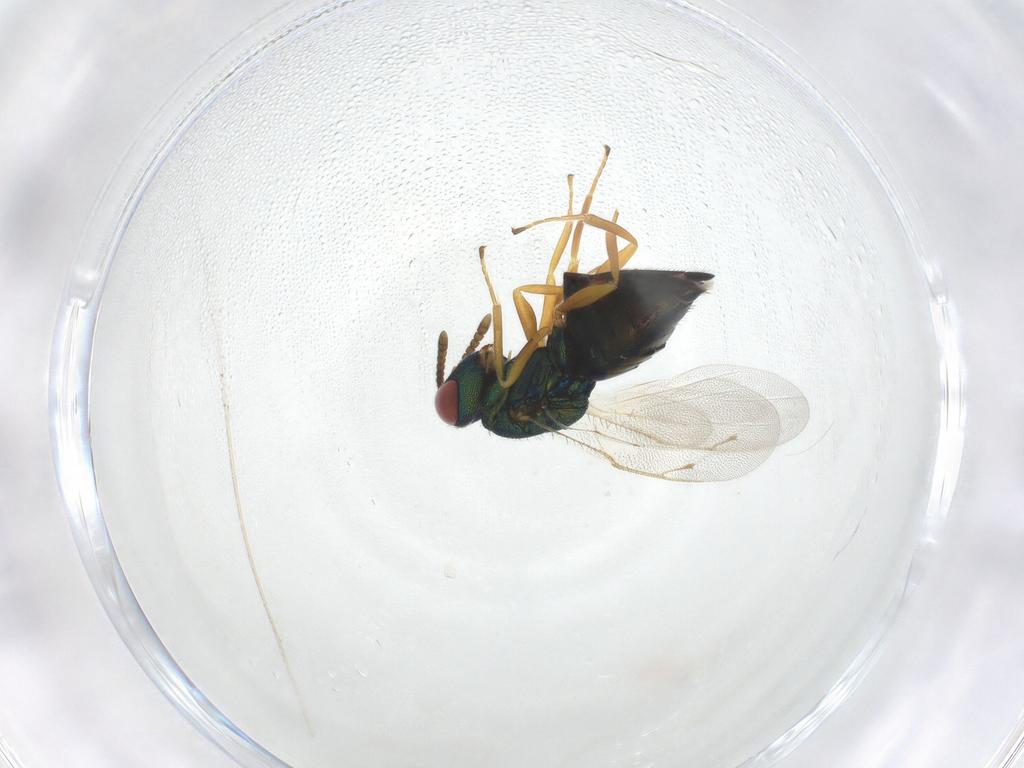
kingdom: Animalia
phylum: Arthropoda
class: Insecta
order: Hymenoptera
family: Pteromalidae
